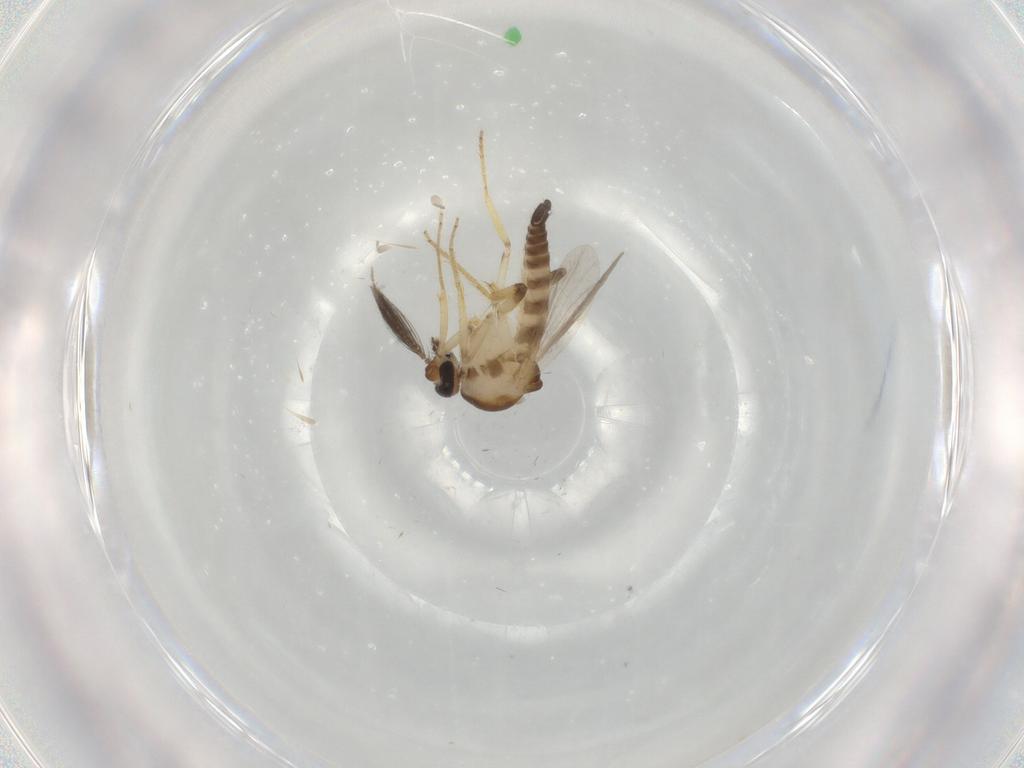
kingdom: Animalia
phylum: Arthropoda
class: Insecta
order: Diptera
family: Ceratopogonidae
